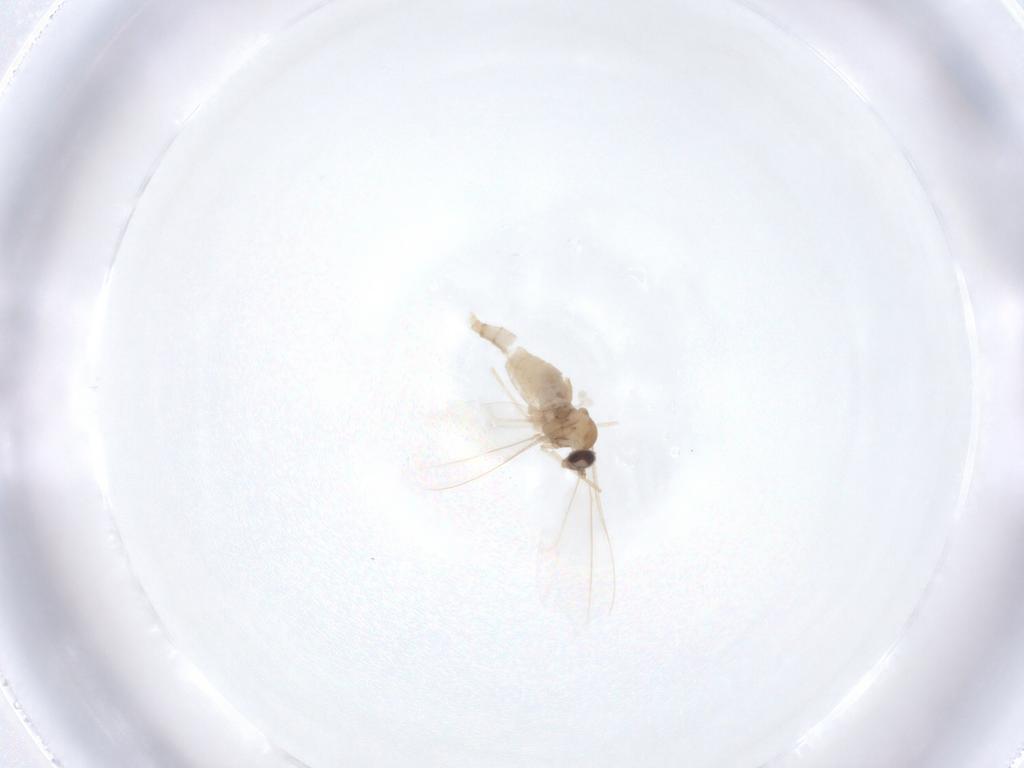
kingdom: Animalia
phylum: Arthropoda
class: Insecta
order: Diptera
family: Cecidomyiidae
